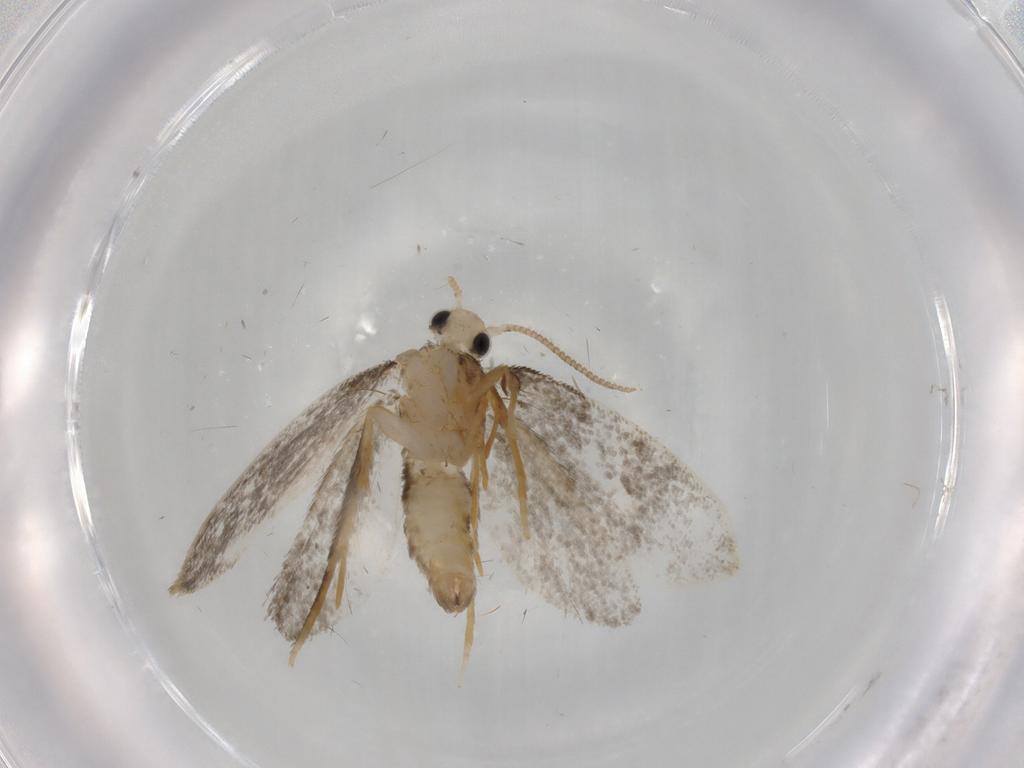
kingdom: Animalia
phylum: Arthropoda
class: Insecta
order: Lepidoptera
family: Psychidae
